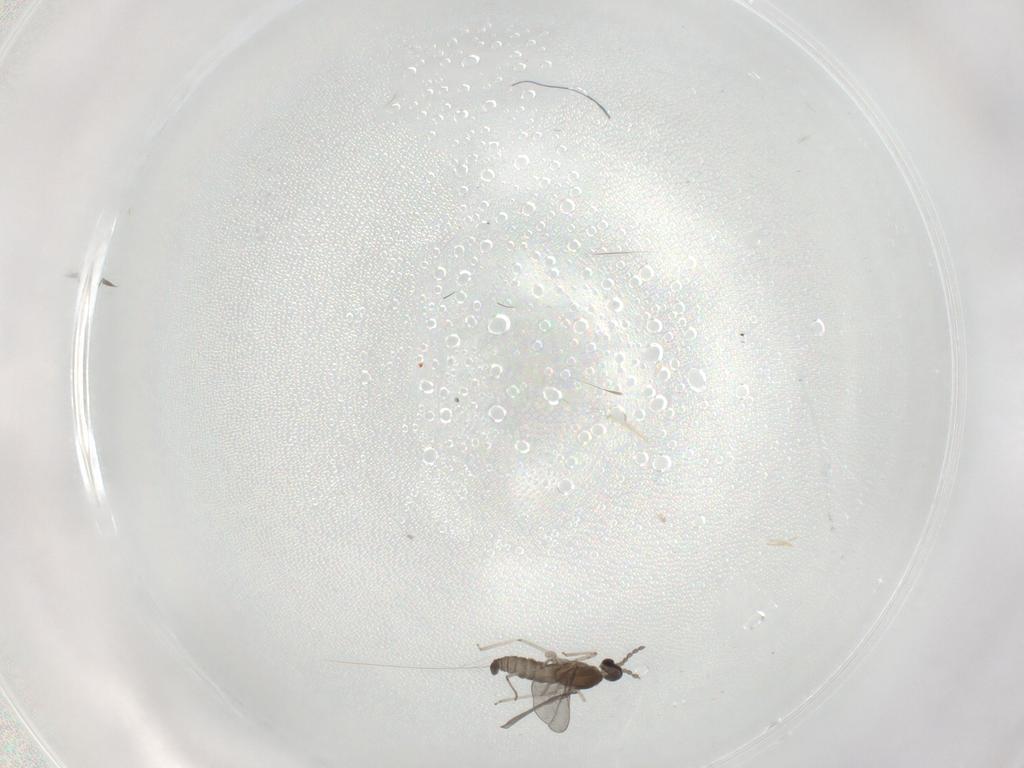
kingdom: Animalia
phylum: Arthropoda
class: Insecta
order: Diptera
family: Cecidomyiidae
